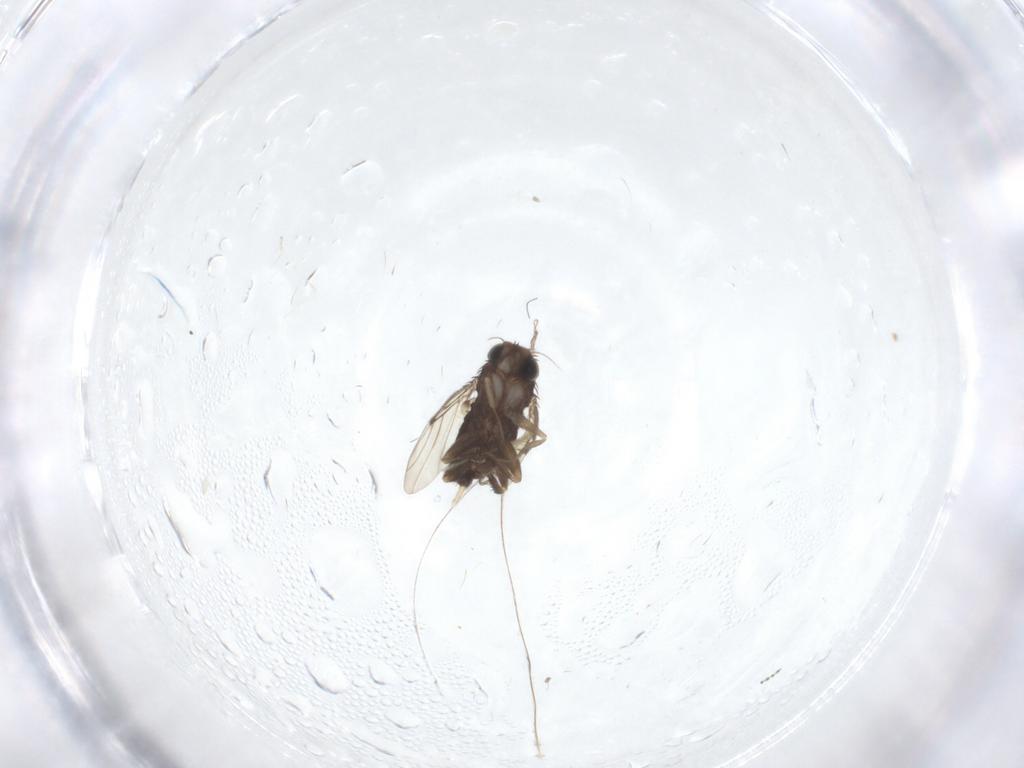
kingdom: Animalia
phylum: Arthropoda
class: Insecta
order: Diptera
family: Phoridae
